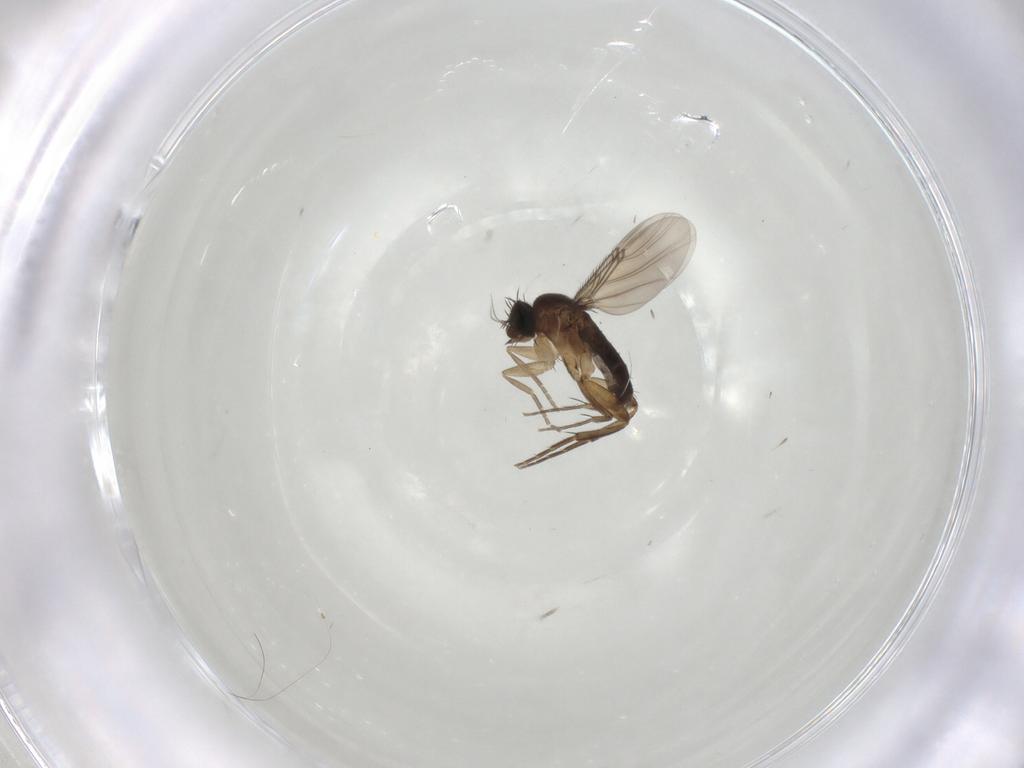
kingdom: Animalia
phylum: Arthropoda
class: Insecta
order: Diptera
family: Phoridae
